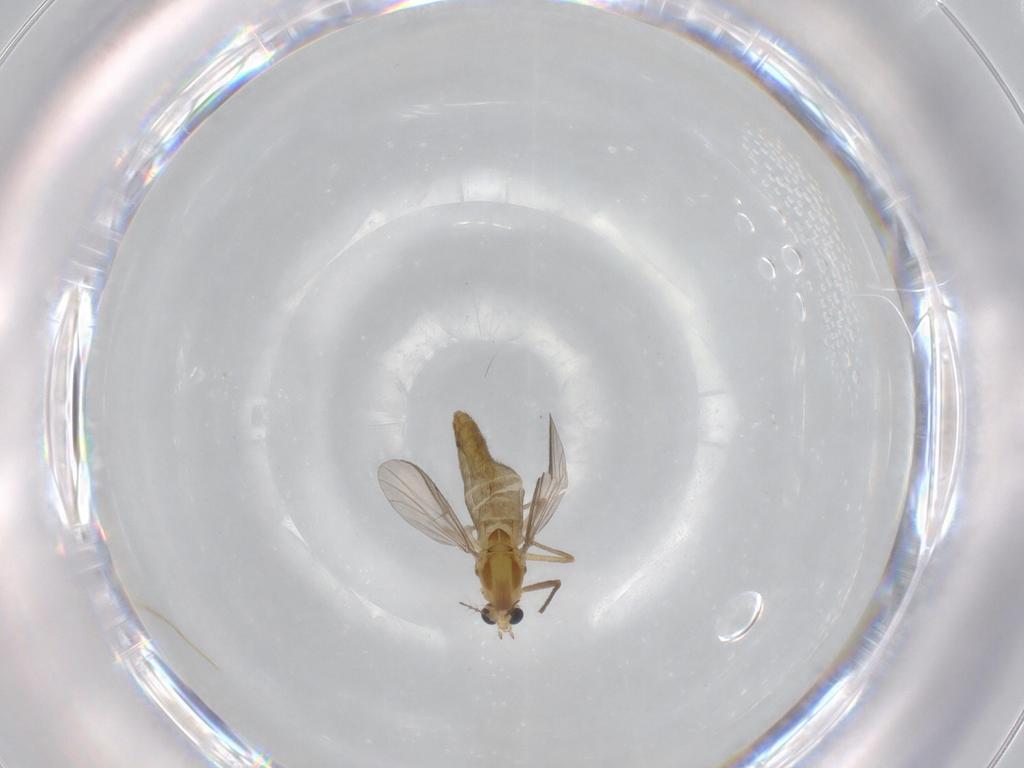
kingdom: Animalia
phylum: Arthropoda
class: Insecta
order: Diptera
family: Chironomidae
